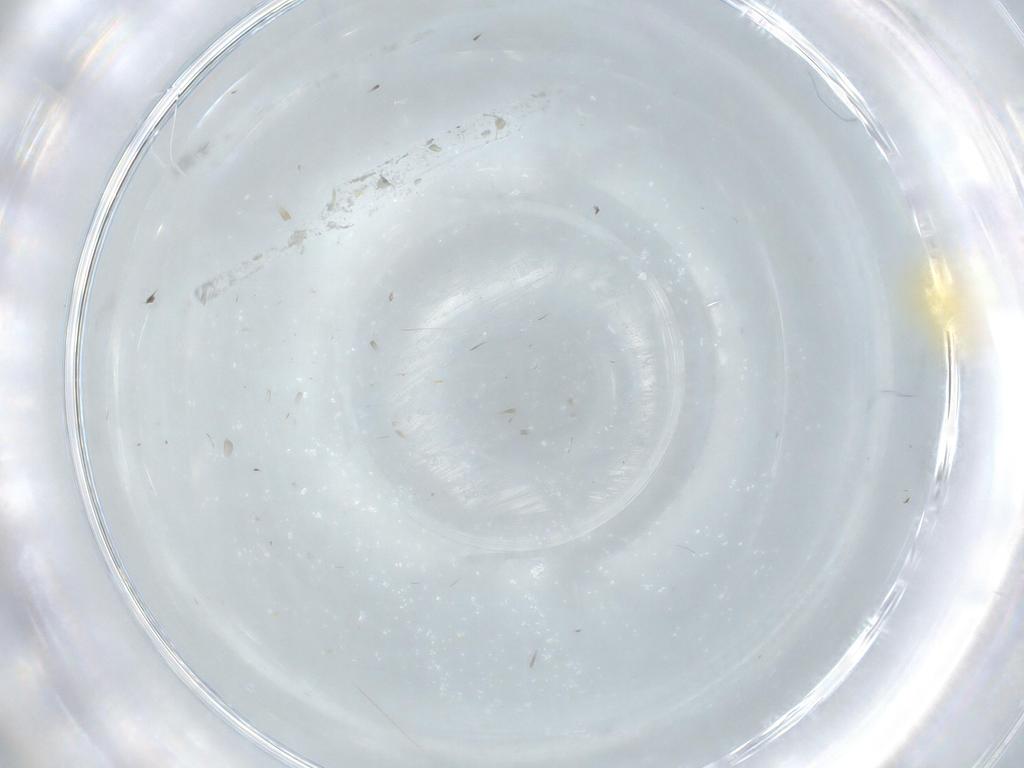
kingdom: Animalia
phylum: Arthropoda
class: Insecta
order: Hemiptera
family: Aleyrodidae
